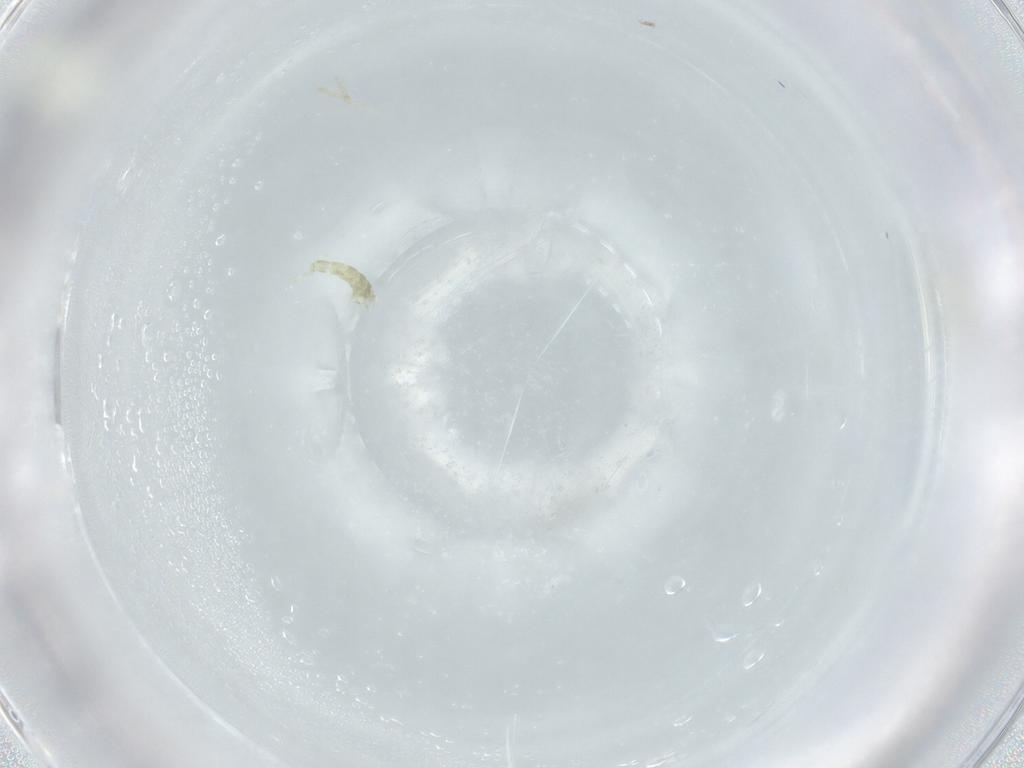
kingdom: Animalia
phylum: Arthropoda
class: Insecta
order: Diptera
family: Chironomidae
